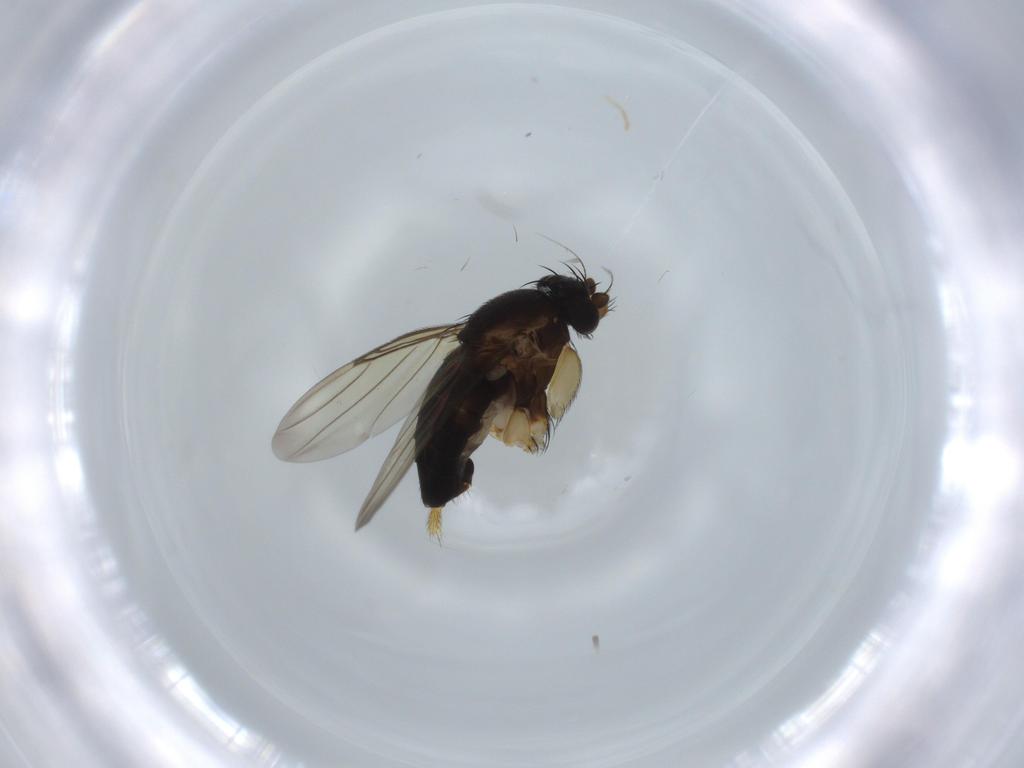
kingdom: Animalia
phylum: Arthropoda
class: Insecta
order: Diptera
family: Phoridae
